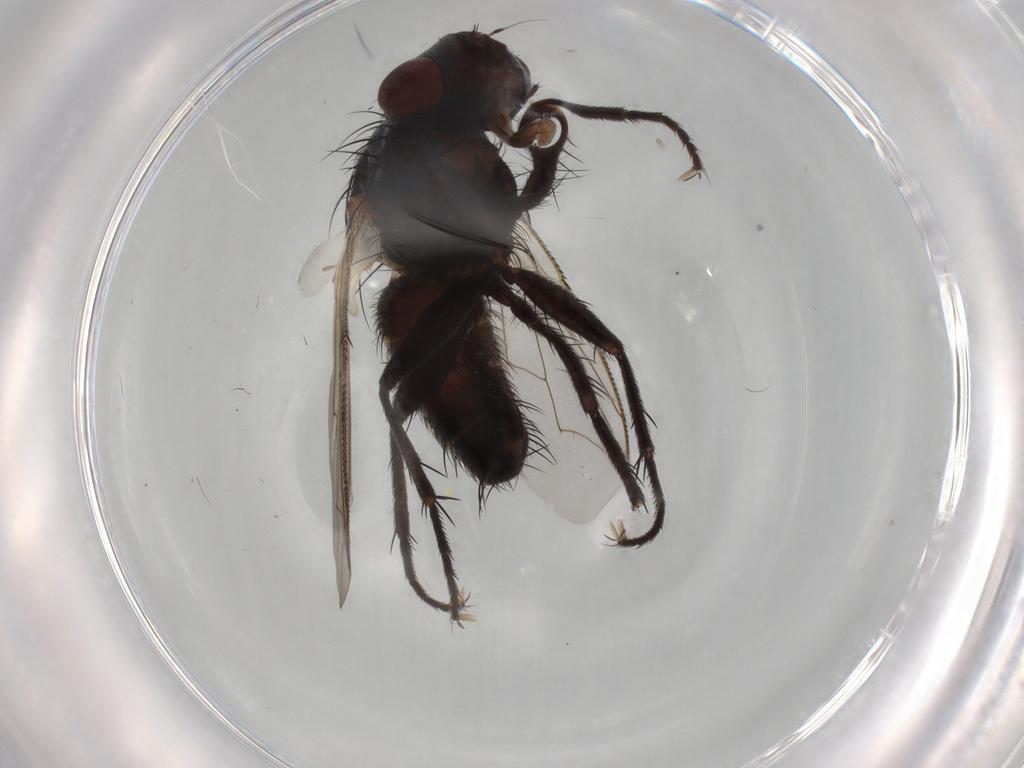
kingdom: Animalia
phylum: Arthropoda
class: Insecta
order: Diptera
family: Sarcophagidae
